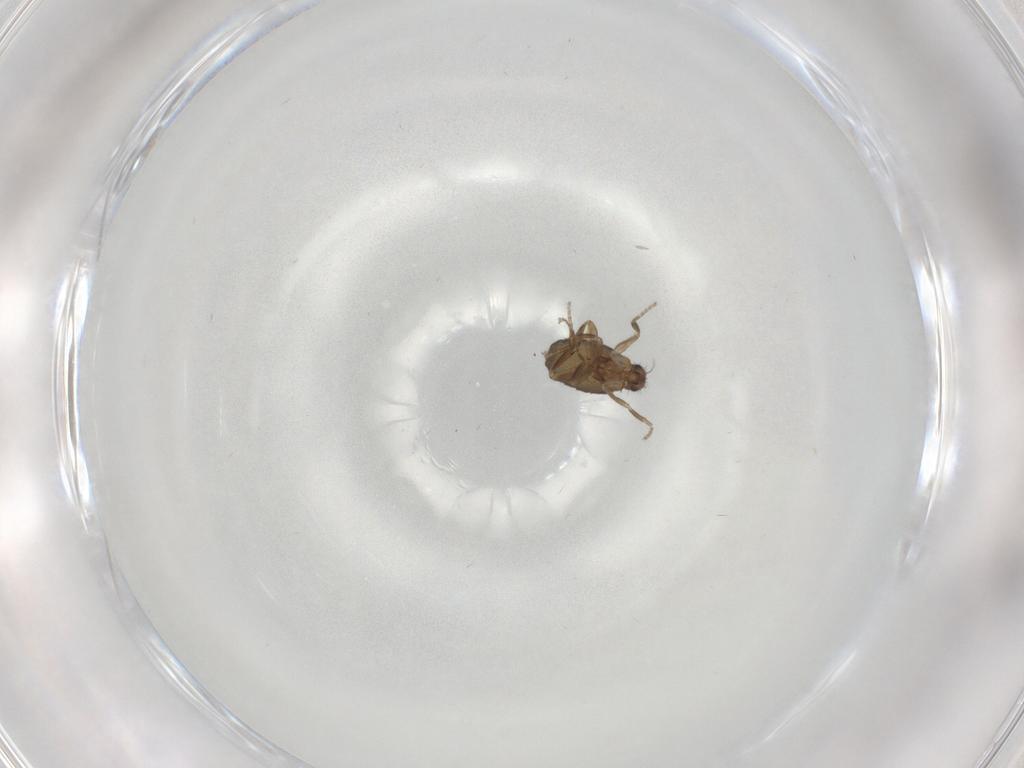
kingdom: Animalia
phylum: Arthropoda
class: Insecta
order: Diptera
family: Drosophilidae
